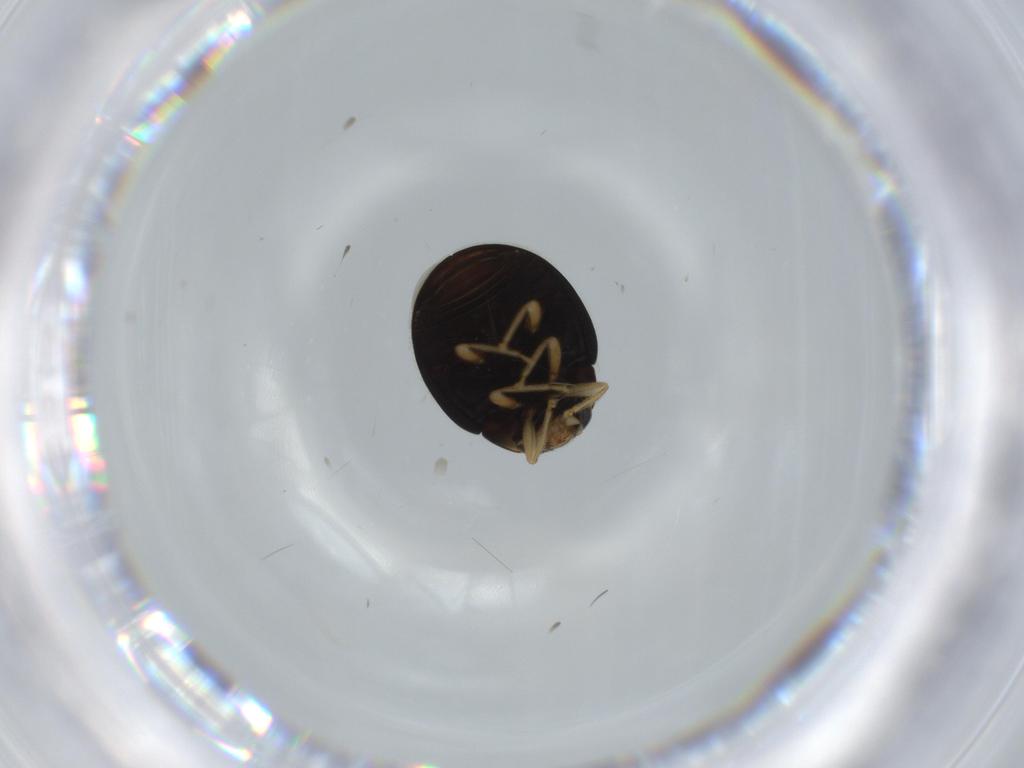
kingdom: Animalia
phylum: Arthropoda
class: Insecta
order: Coleoptera
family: Coccinellidae
